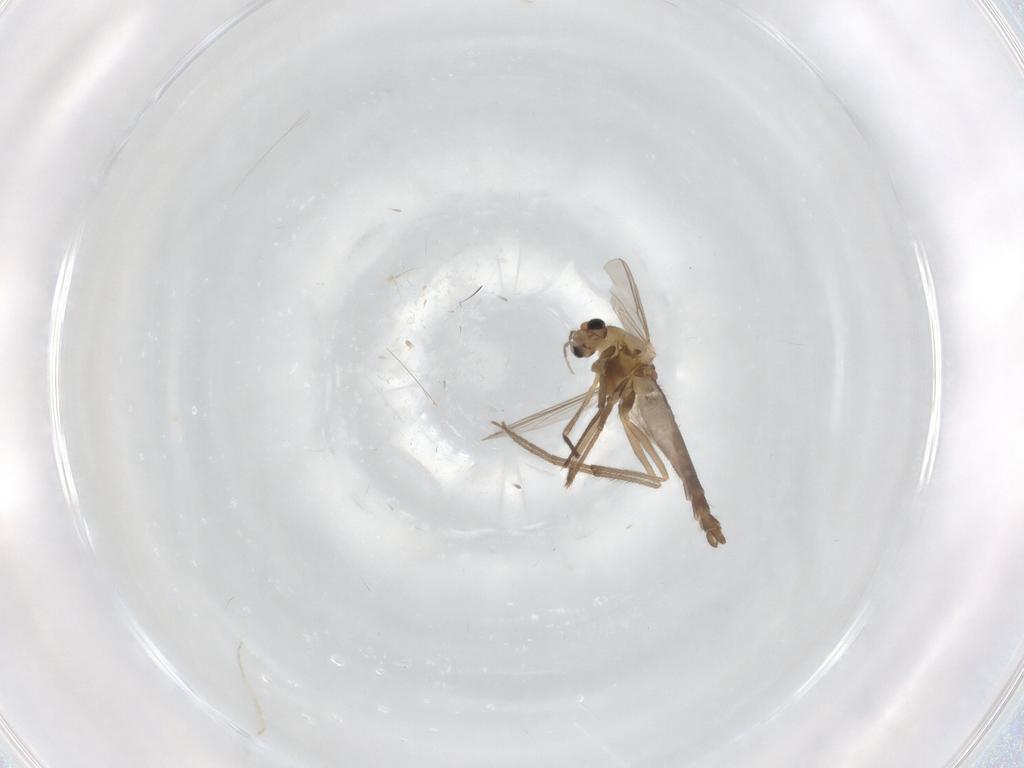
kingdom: Animalia
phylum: Arthropoda
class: Insecta
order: Diptera
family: Chironomidae
